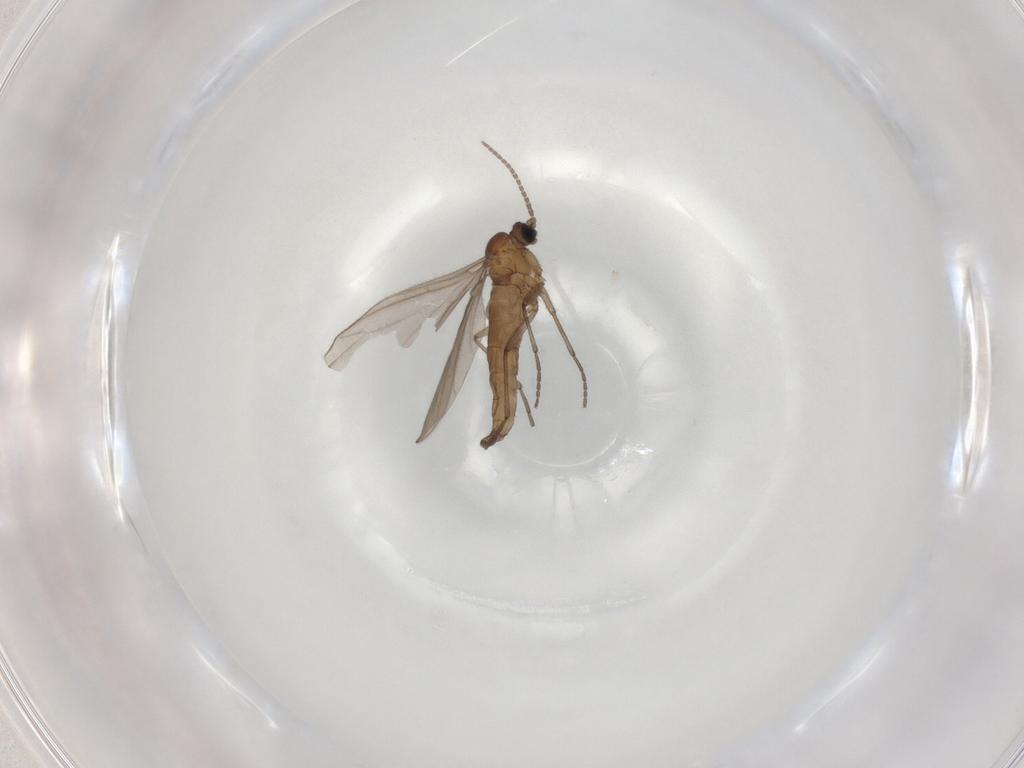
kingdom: Animalia
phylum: Arthropoda
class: Insecta
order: Diptera
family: Sciaridae
